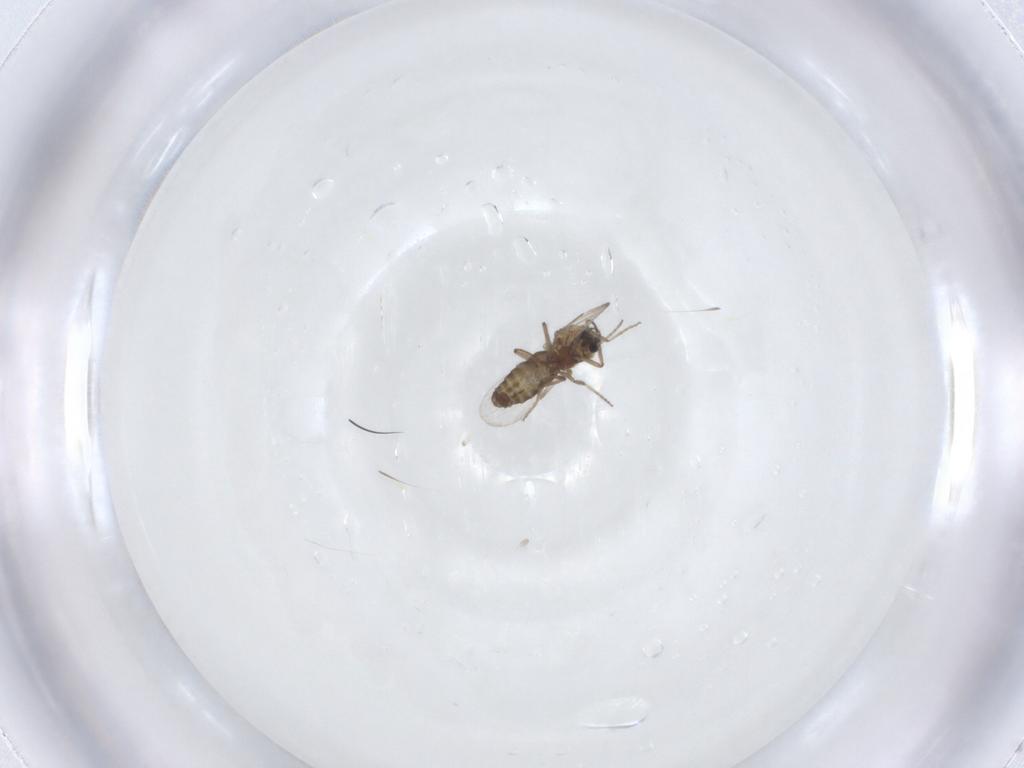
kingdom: Animalia
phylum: Arthropoda
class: Insecta
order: Diptera
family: Ceratopogonidae
